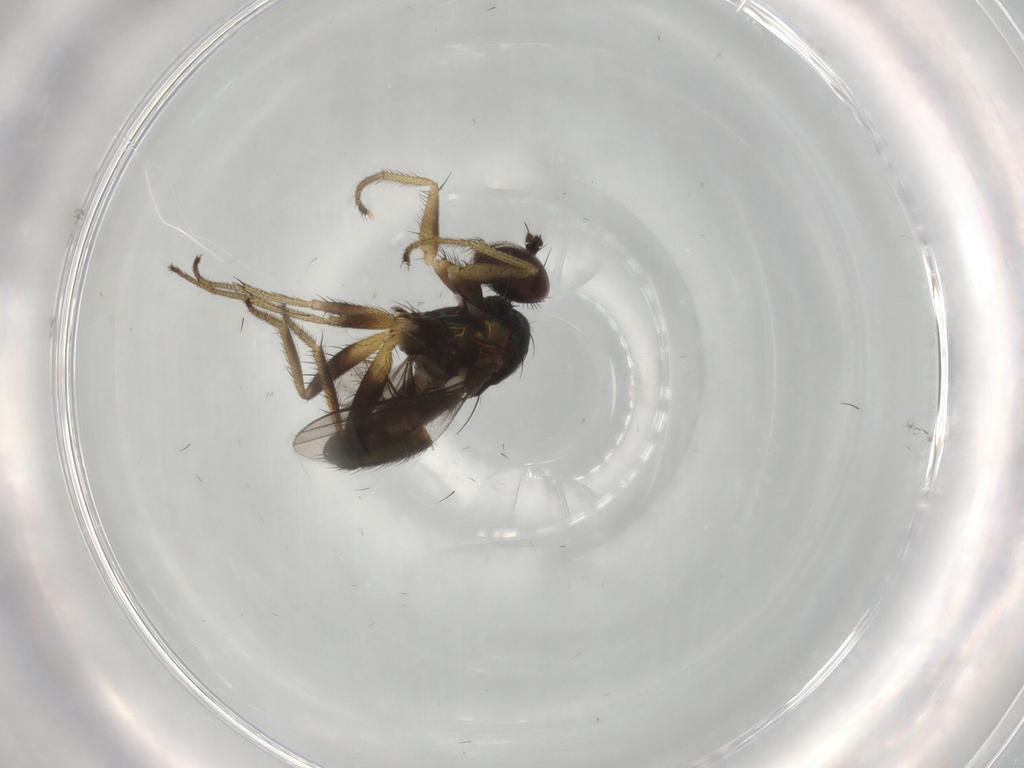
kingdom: Animalia
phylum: Arthropoda
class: Insecta
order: Diptera
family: Dolichopodidae
